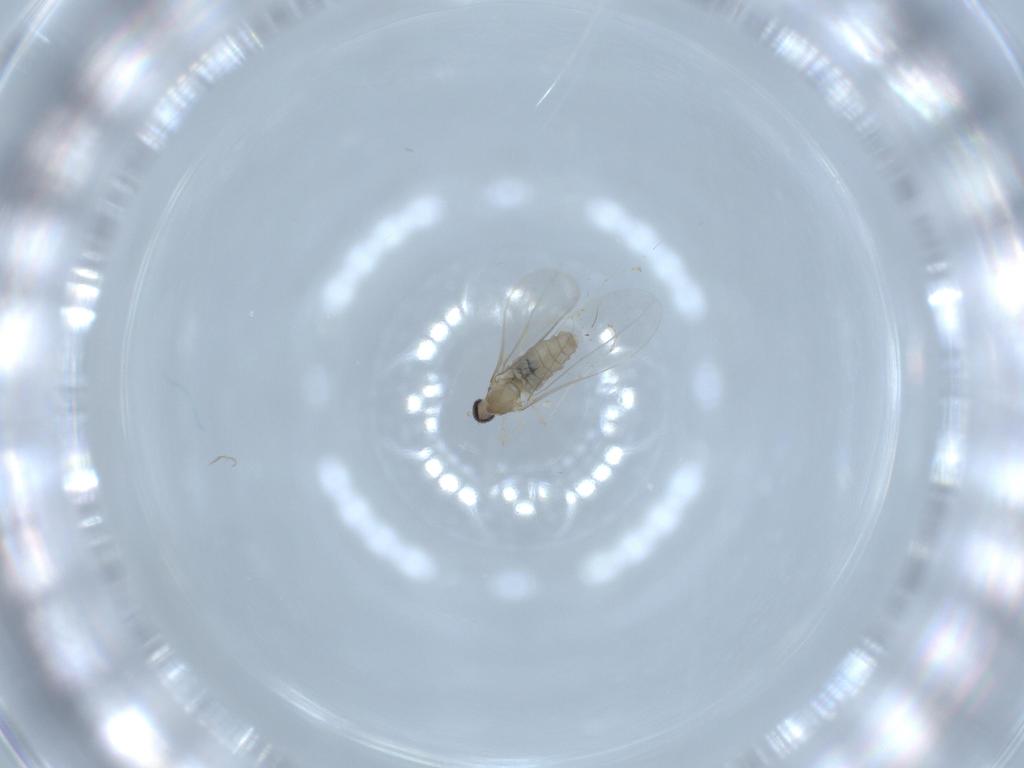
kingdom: Animalia
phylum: Arthropoda
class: Insecta
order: Diptera
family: Cecidomyiidae
